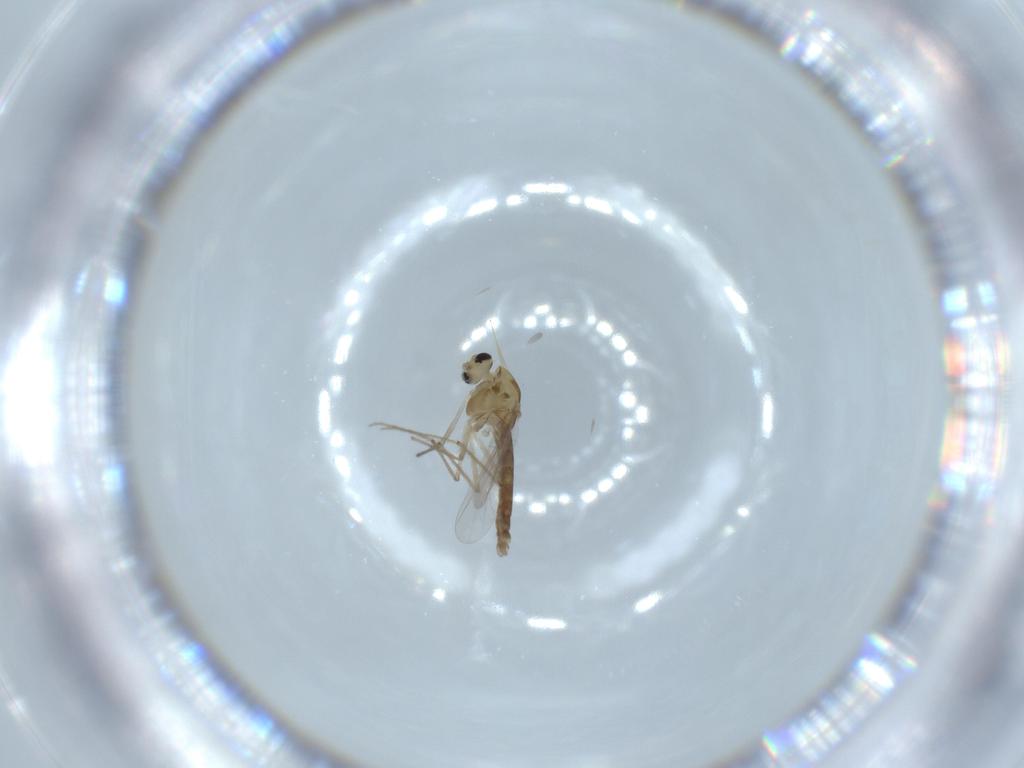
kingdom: Animalia
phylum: Arthropoda
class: Insecta
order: Diptera
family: Chironomidae
